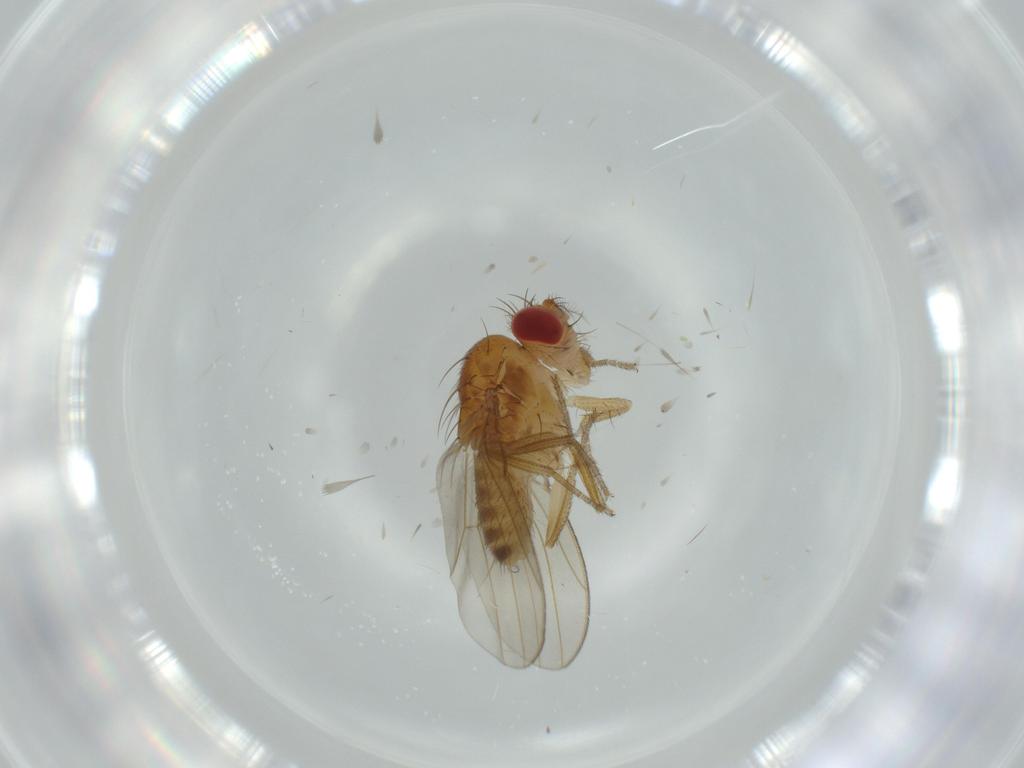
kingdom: Animalia
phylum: Arthropoda
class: Insecta
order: Diptera
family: Drosophilidae
